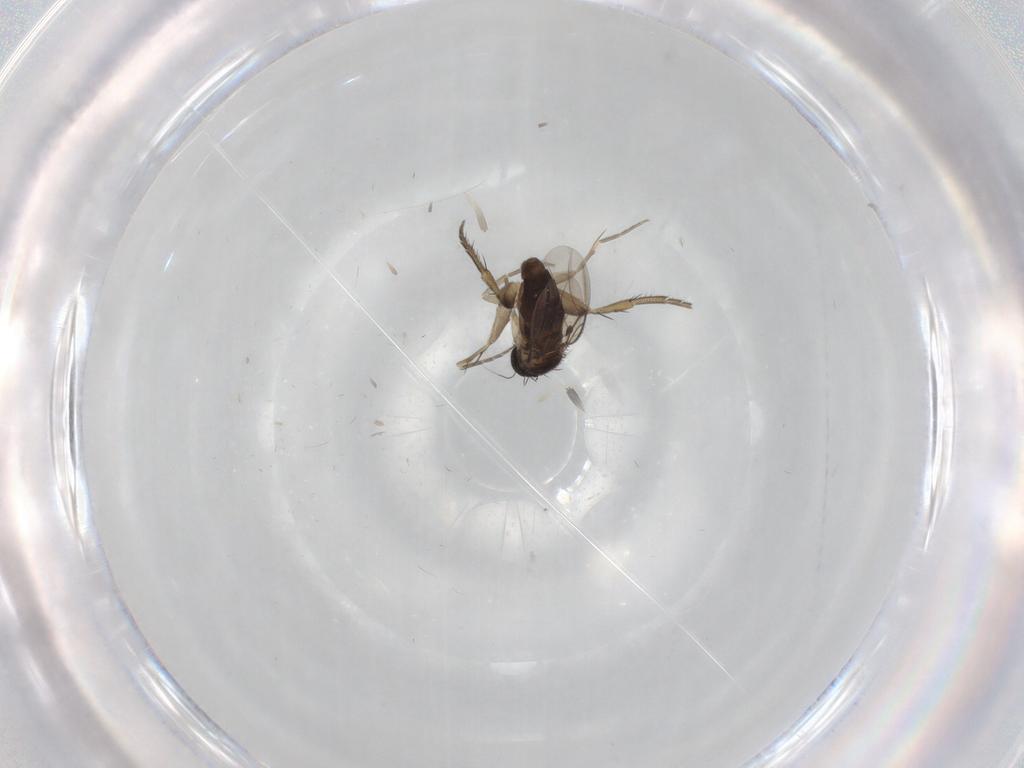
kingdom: Animalia
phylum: Arthropoda
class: Insecta
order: Diptera
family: Phoridae
